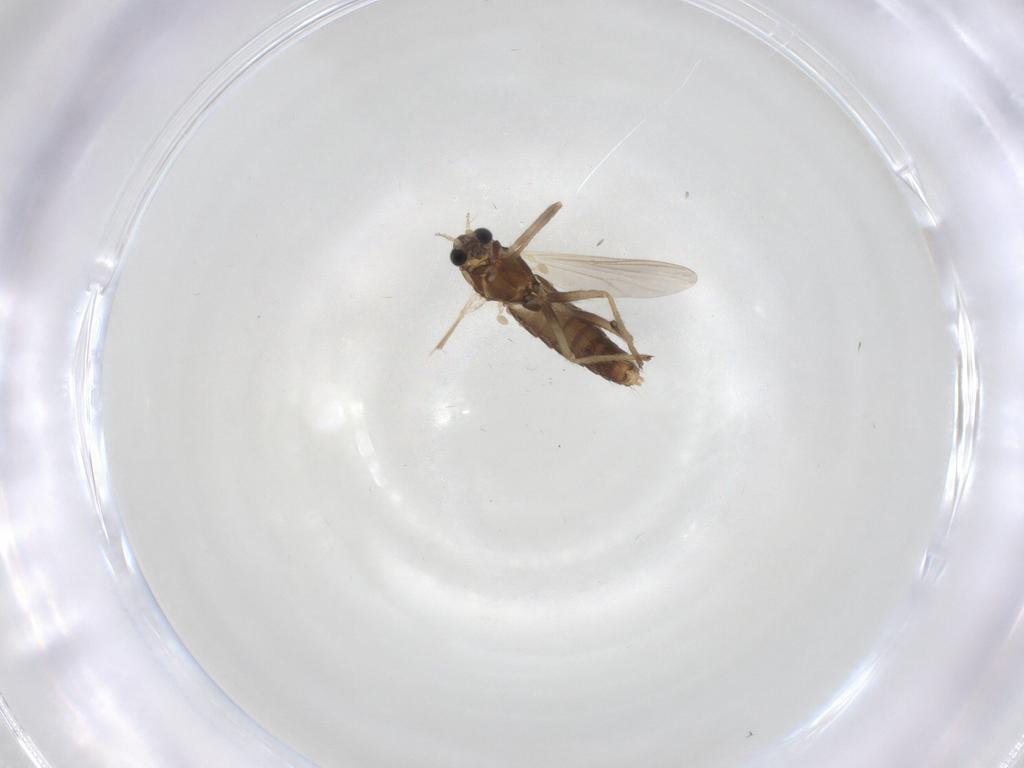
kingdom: Animalia
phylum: Arthropoda
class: Insecta
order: Diptera
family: Chironomidae
